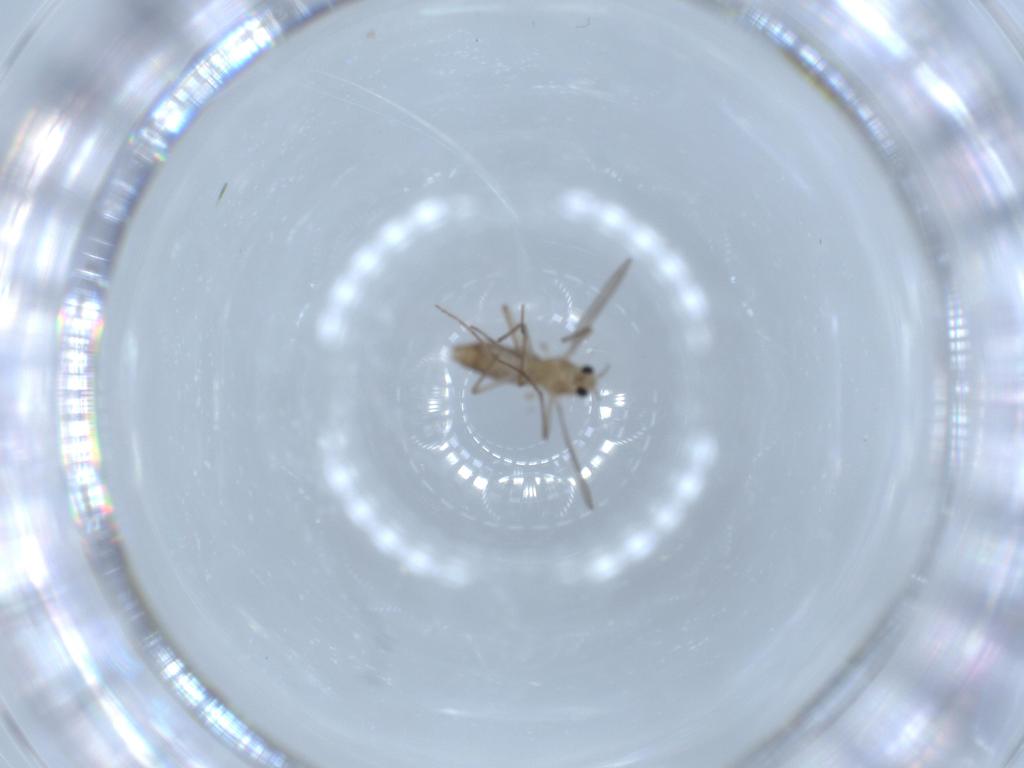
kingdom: Animalia
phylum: Arthropoda
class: Insecta
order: Diptera
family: Chironomidae
